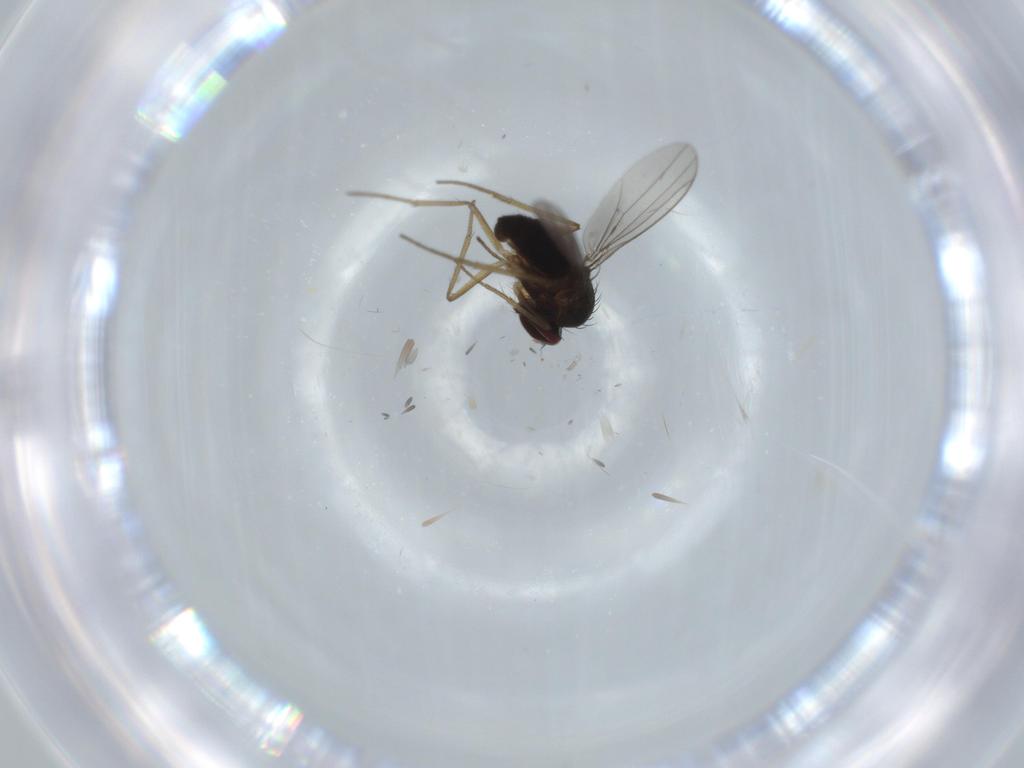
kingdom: Animalia
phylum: Arthropoda
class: Insecta
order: Diptera
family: Dolichopodidae
